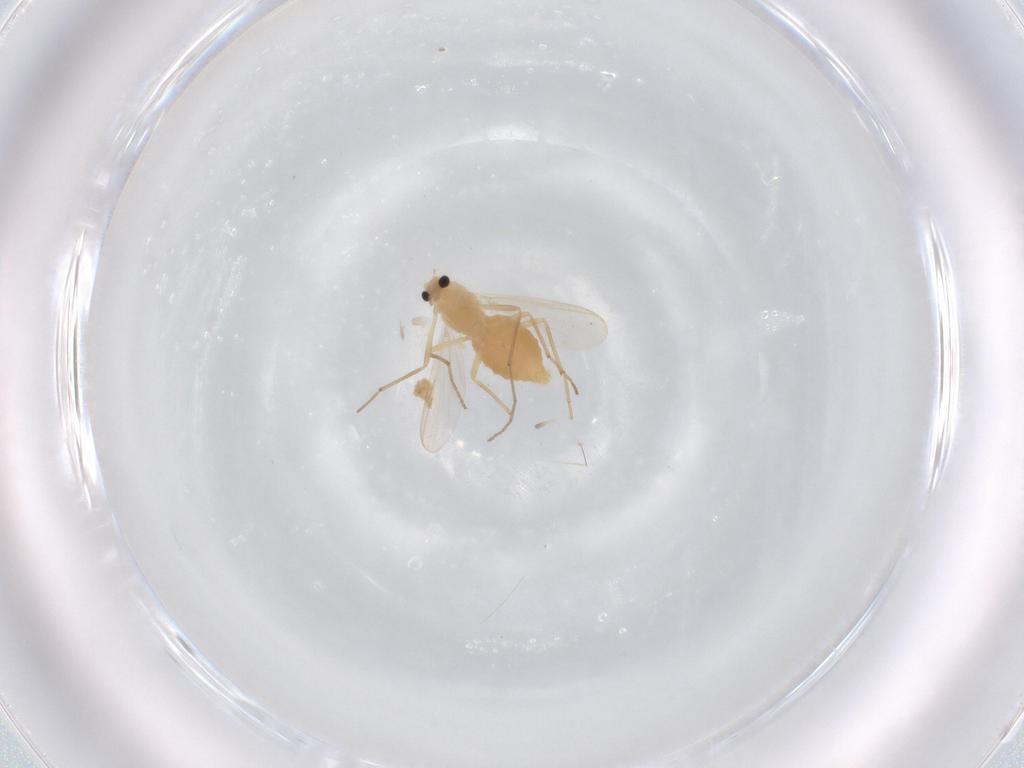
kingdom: Animalia
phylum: Arthropoda
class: Insecta
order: Diptera
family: Chironomidae
